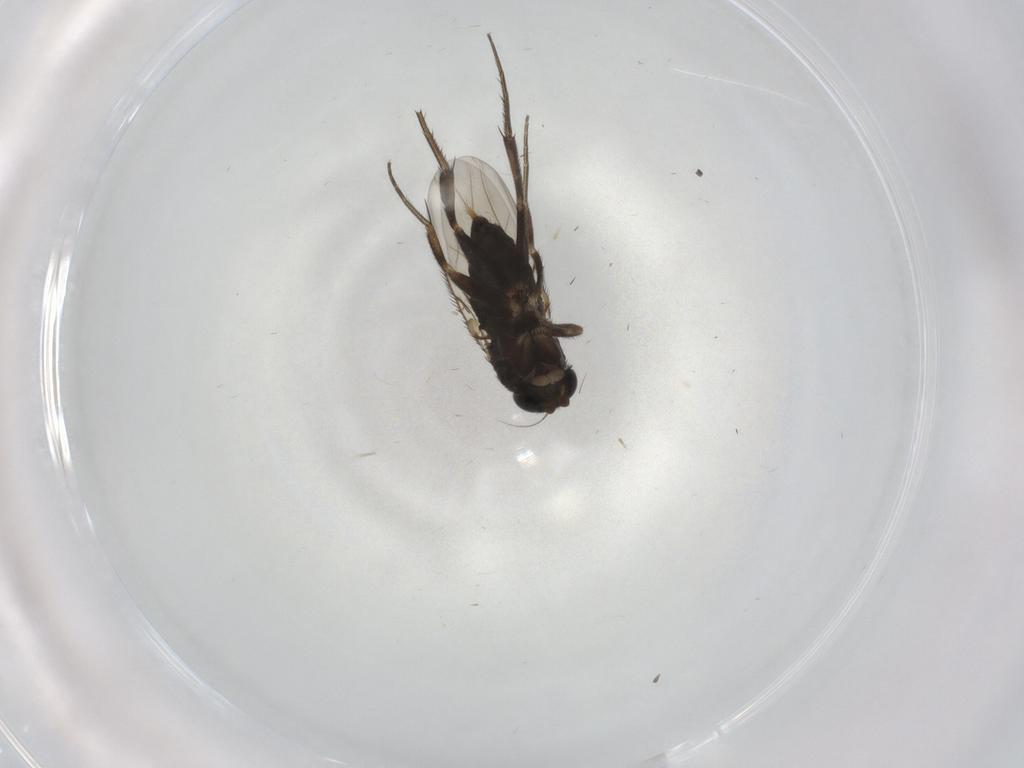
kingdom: Animalia
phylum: Arthropoda
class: Insecta
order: Diptera
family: Phoridae
